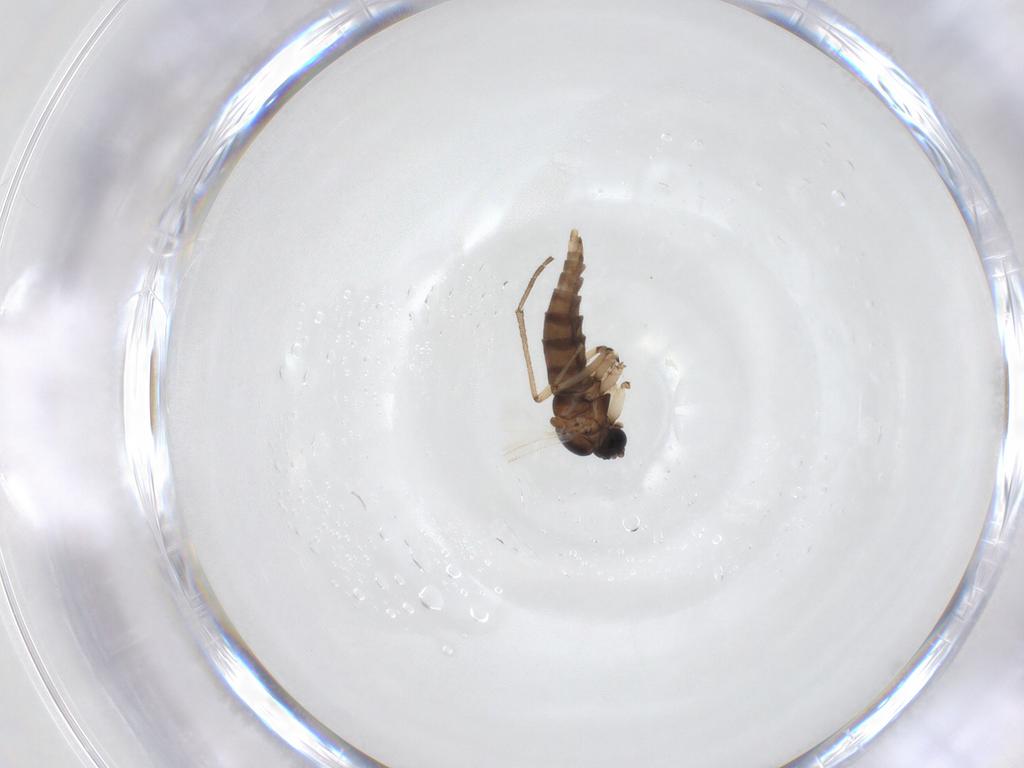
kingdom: Animalia
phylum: Arthropoda
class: Insecta
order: Diptera
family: Sciaridae
